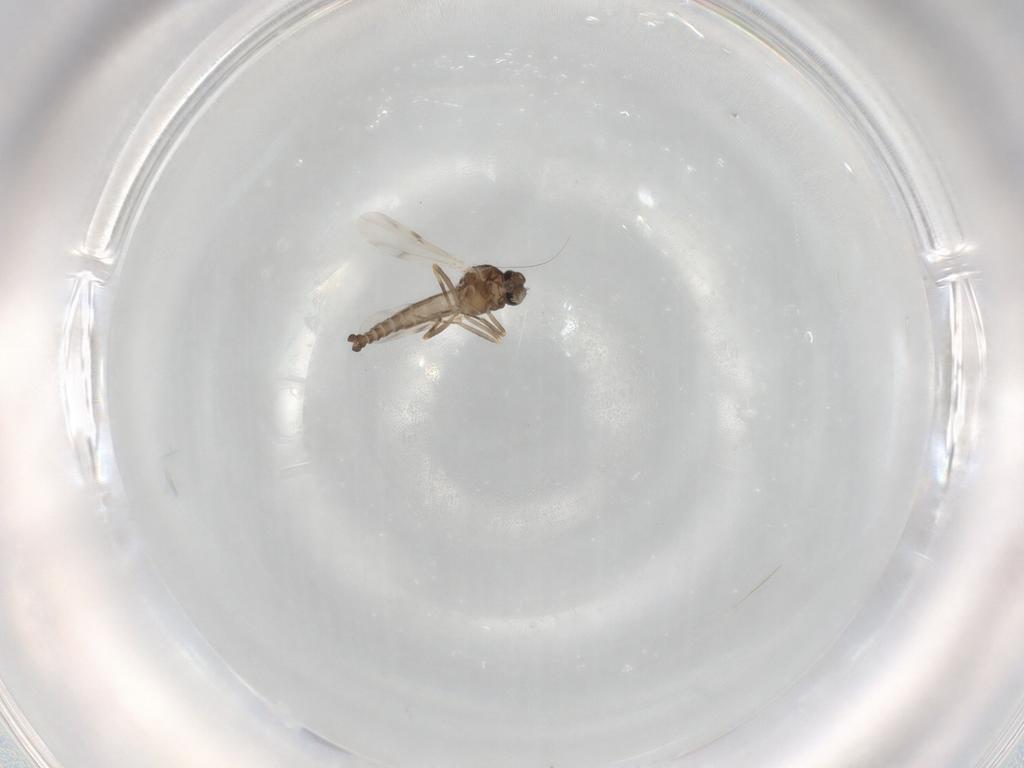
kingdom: Animalia
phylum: Arthropoda
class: Insecta
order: Diptera
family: Ceratopogonidae
